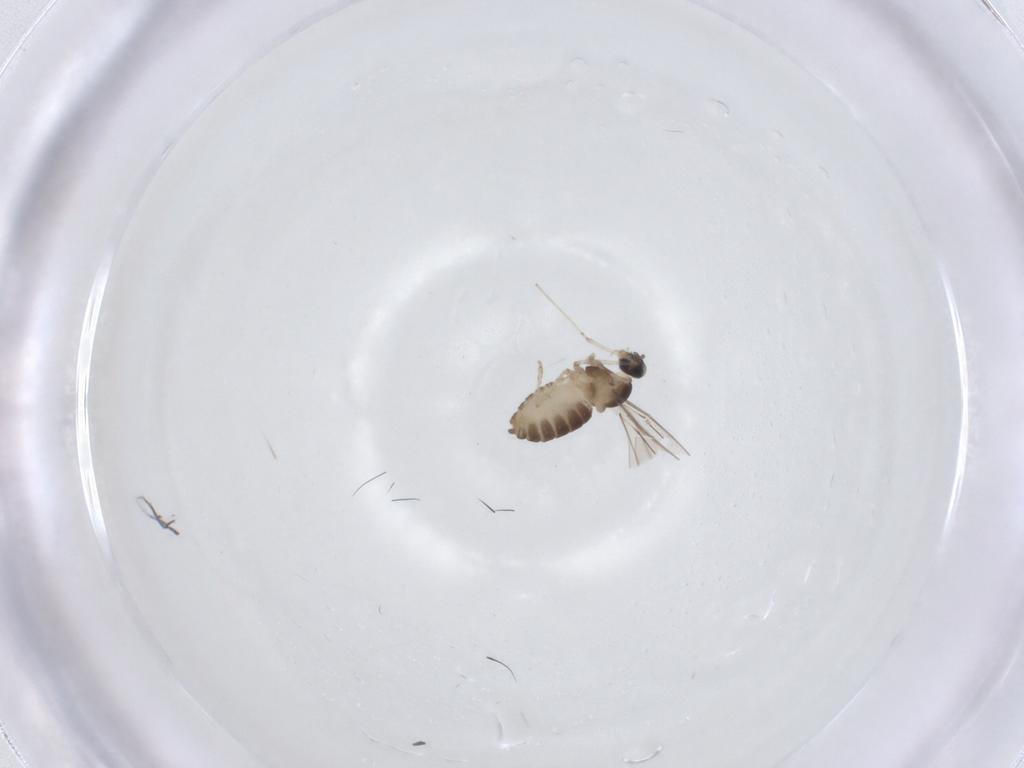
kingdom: Animalia
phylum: Arthropoda
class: Insecta
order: Diptera
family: Cecidomyiidae
